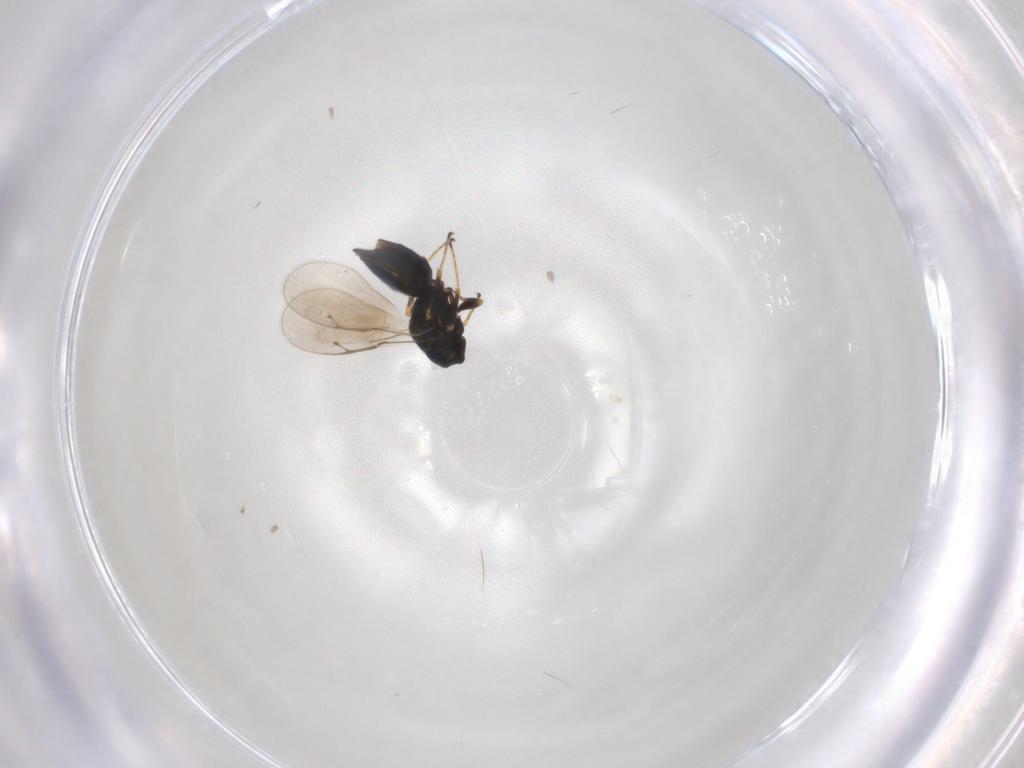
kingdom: Animalia
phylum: Arthropoda
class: Insecta
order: Hymenoptera
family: Pteromalidae
